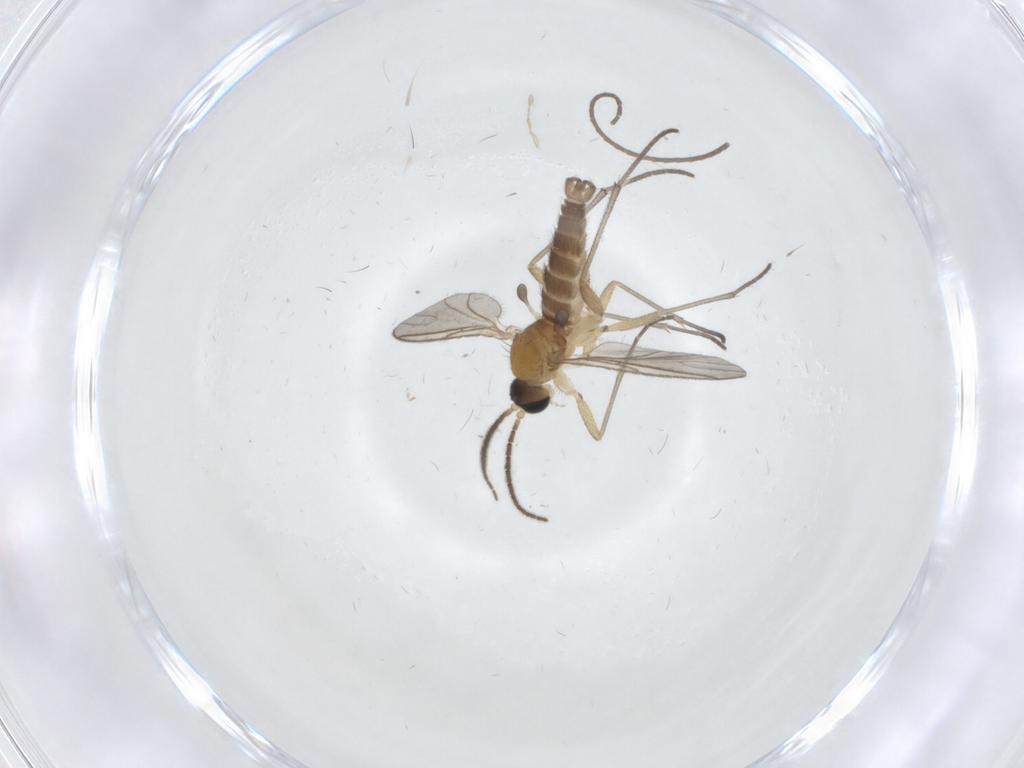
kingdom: Animalia
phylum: Arthropoda
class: Insecta
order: Diptera
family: Sciaridae
